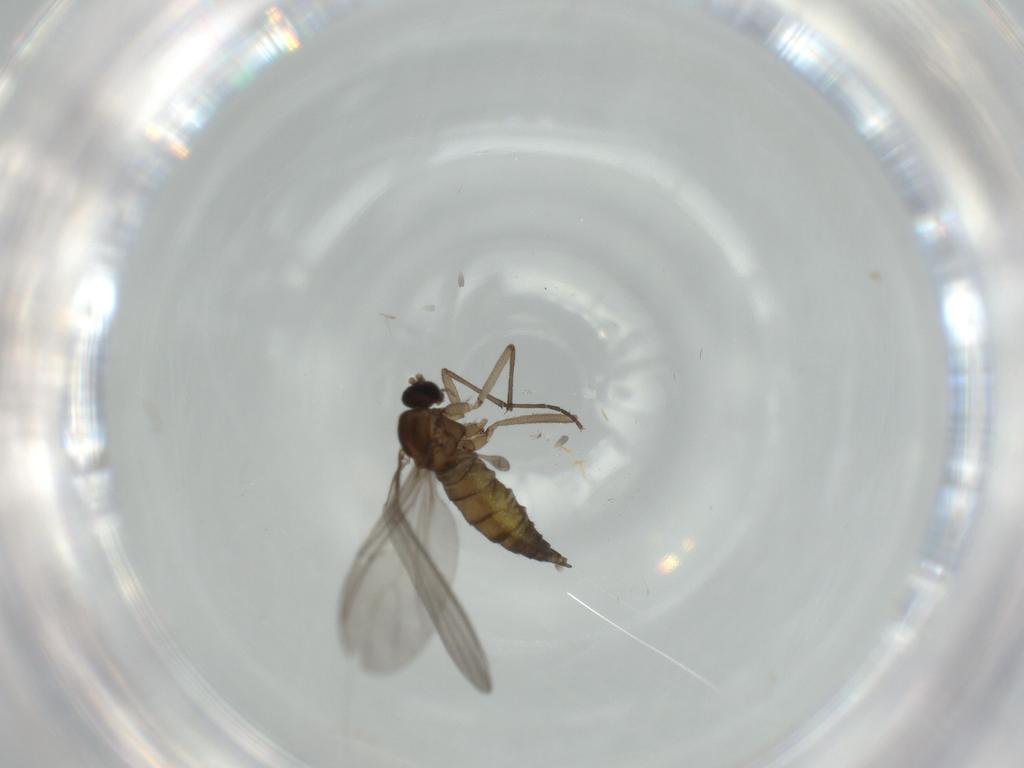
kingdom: Animalia
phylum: Arthropoda
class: Insecta
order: Diptera
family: Sciaridae
